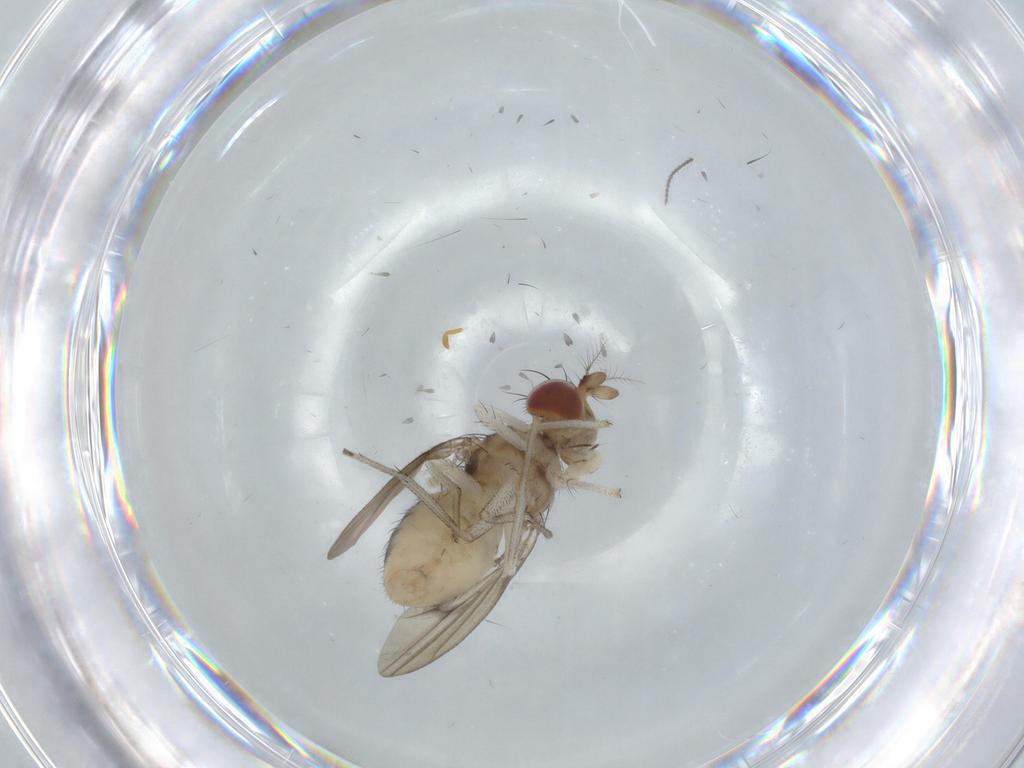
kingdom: Animalia
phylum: Arthropoda
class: Insecta
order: Diptera
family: Lauxaniidae
